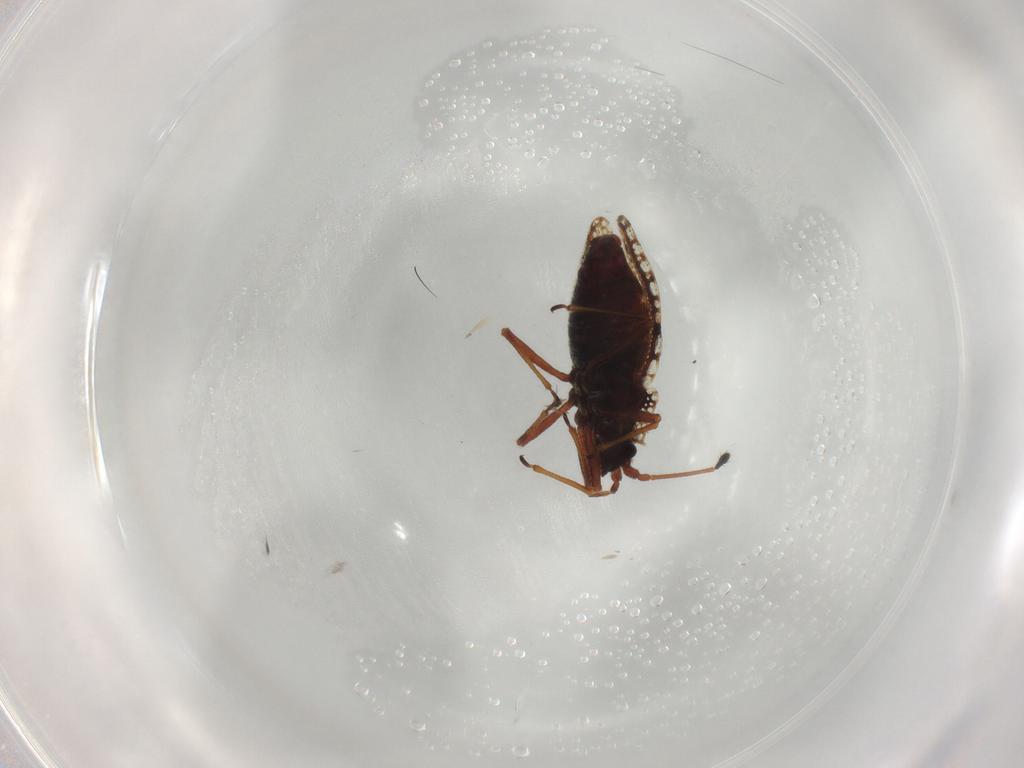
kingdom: Animalia
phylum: Arthropoda
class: Insecta
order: Hemiptera
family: Tingidae
